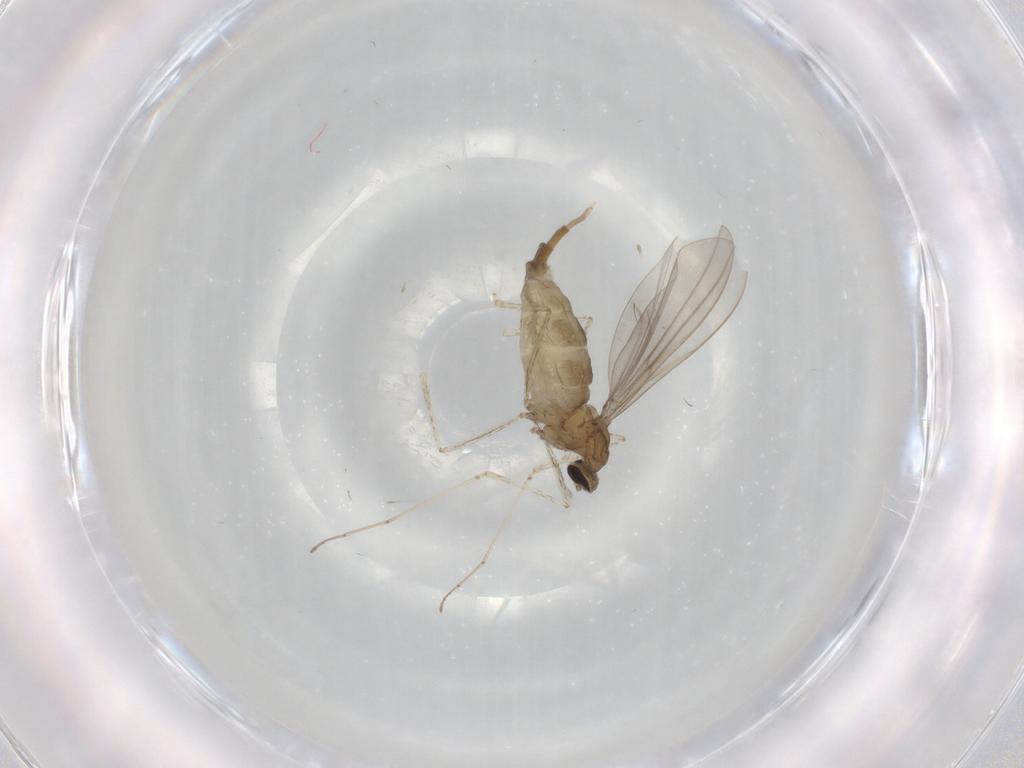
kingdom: Animalia
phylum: Arthropoda
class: Insecta
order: Diptera
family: Cecidomyiidae
